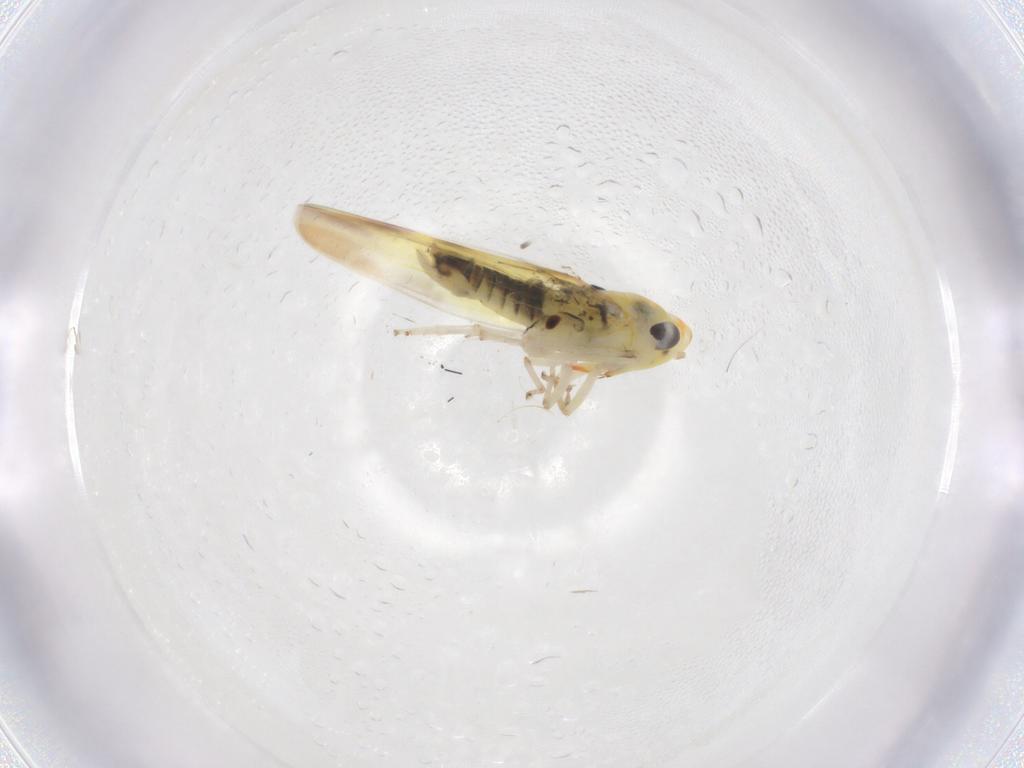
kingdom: Animalia
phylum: Arthropoda
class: Insecta
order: Hemiptera
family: Cicadellidae
